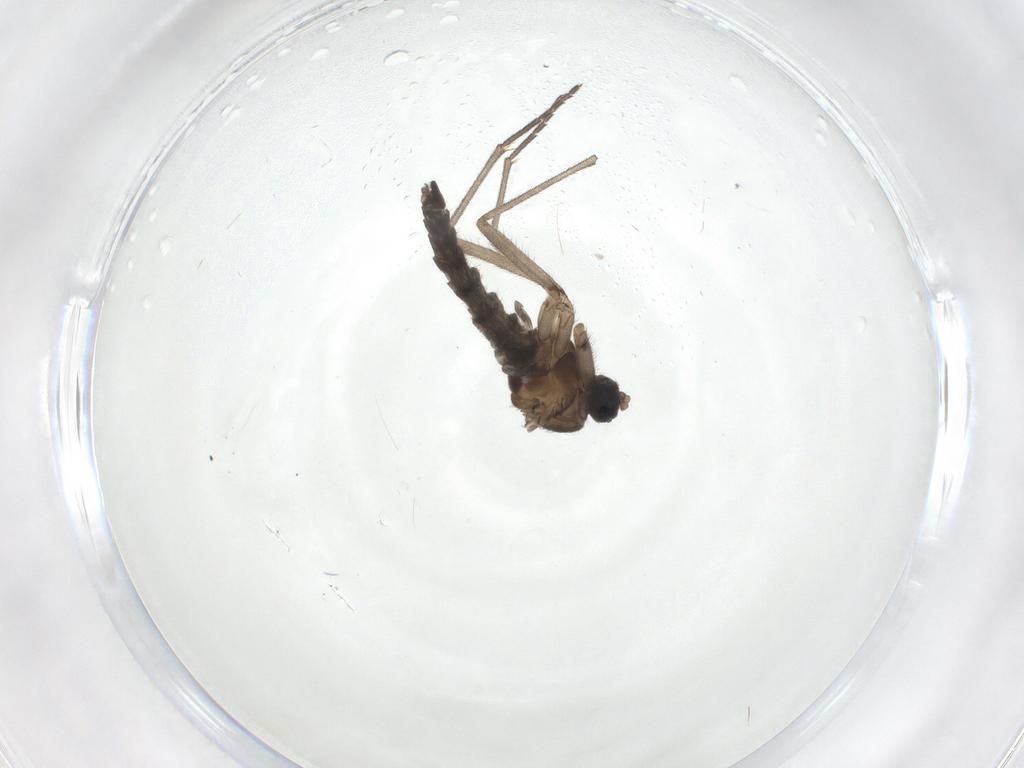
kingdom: Animalia
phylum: Arthropoda
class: Insecta
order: Diptera
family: Sciaridae
